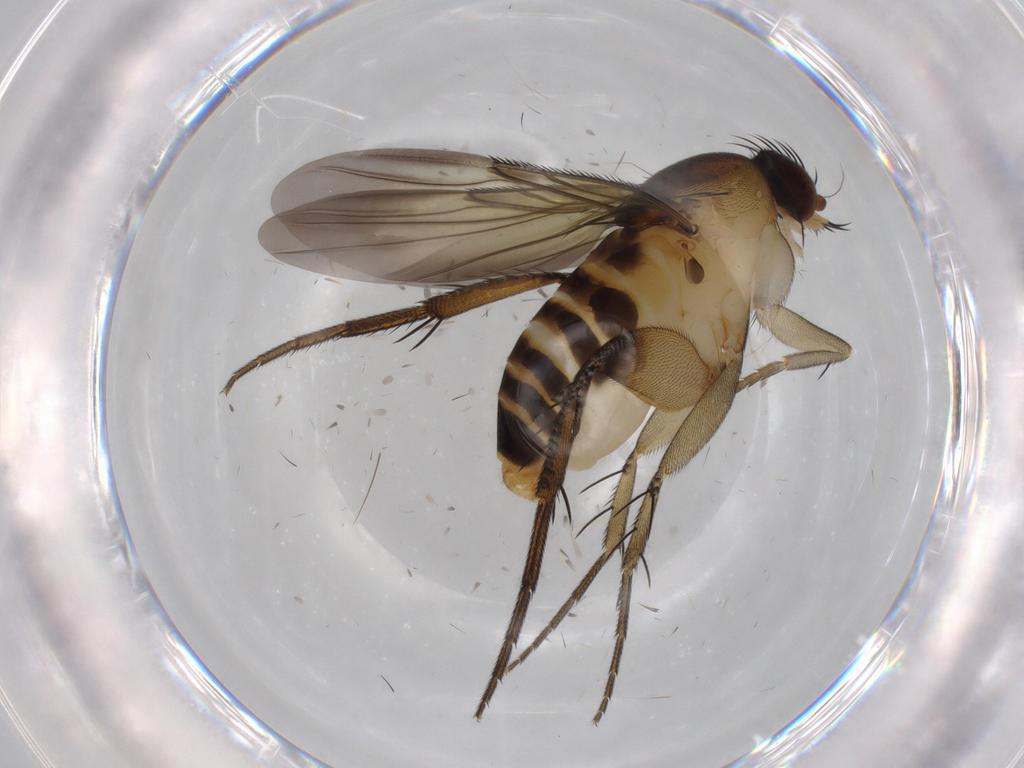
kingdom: Animalia
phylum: Arthropoda
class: Insecta
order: Diptera
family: Phoridae
